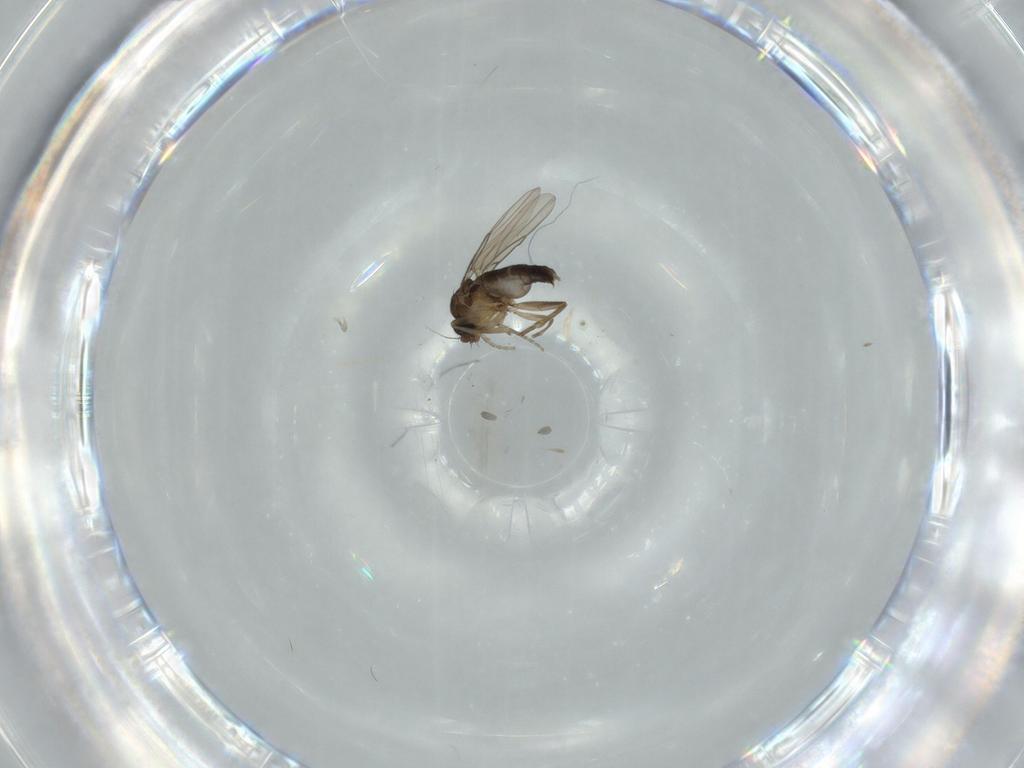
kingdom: Animalia
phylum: Arthropoda
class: Insecta
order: Diptera
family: Phoridae
